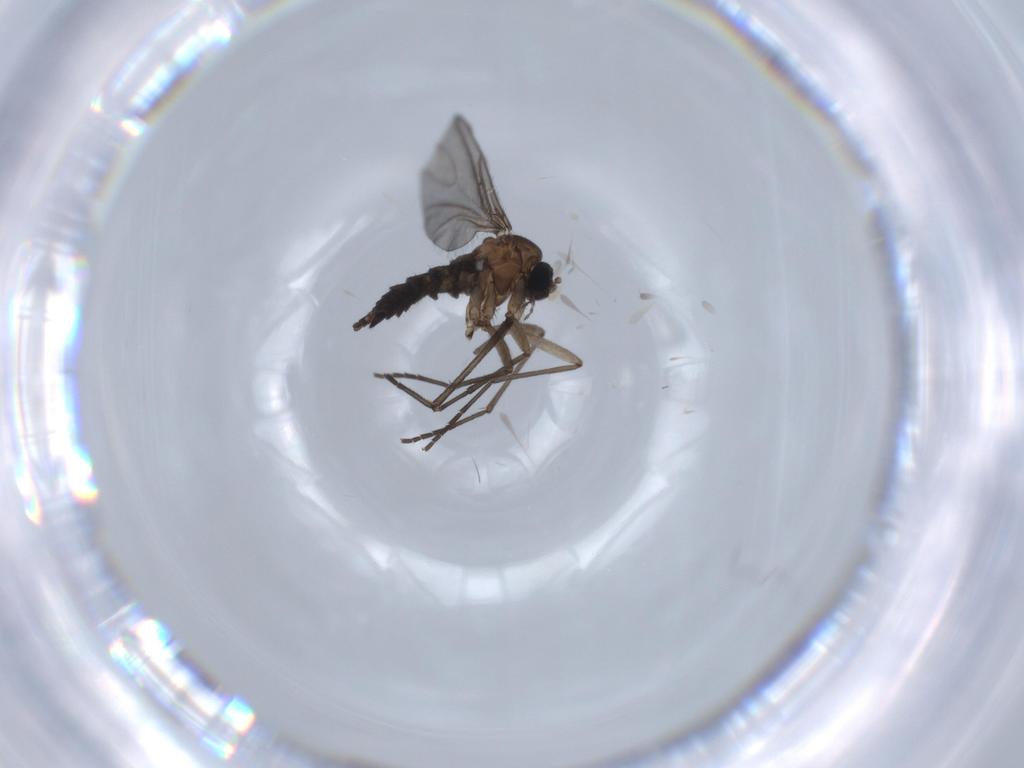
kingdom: Animalia
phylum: Arthropoda
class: Insecta
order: Diptera
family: Sciaridae
